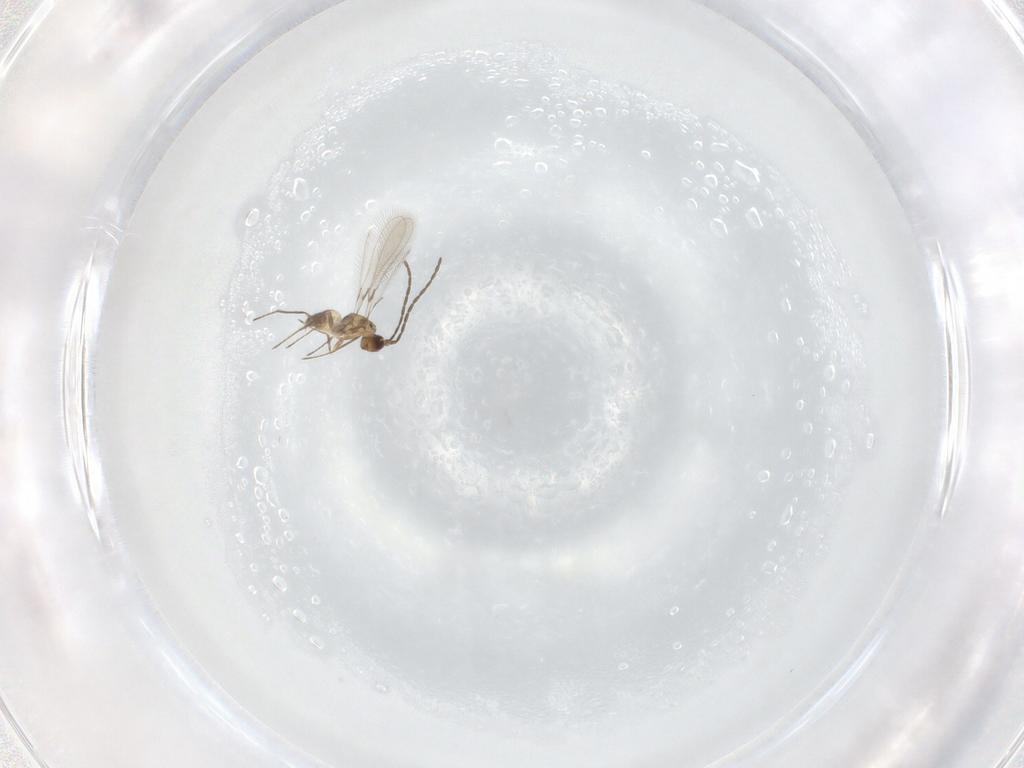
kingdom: Animalia
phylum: Arthropoda
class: Insecta
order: Hymenoptera
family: Mymaridae
